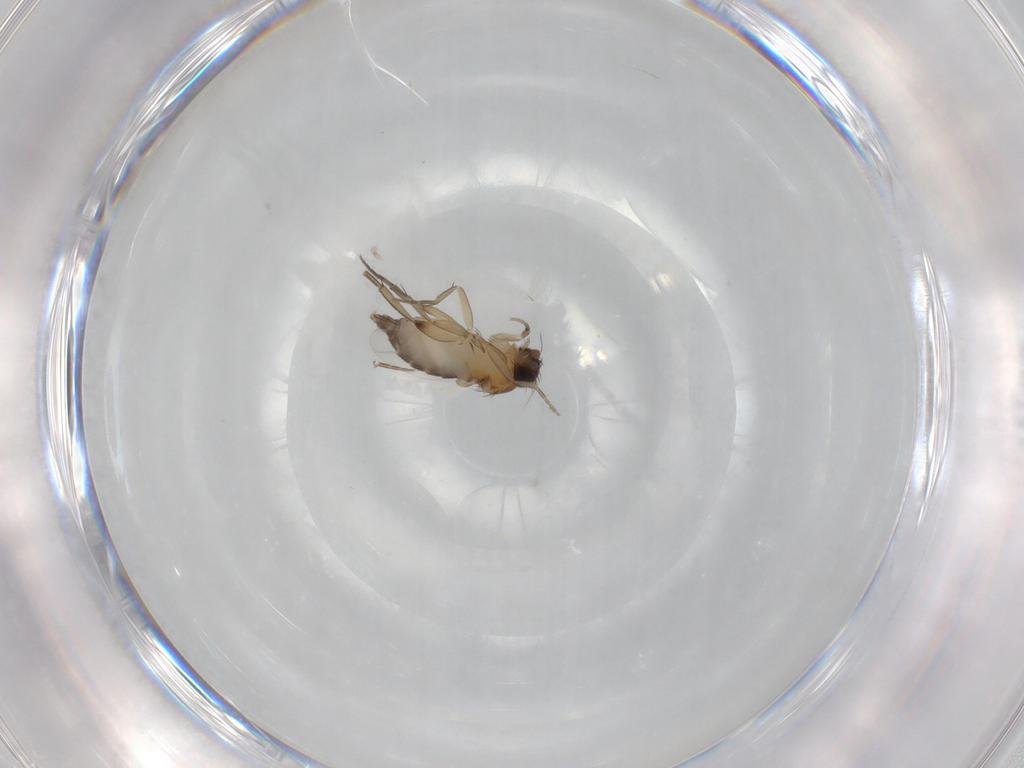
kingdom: Animalia
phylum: Arthropoda
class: Insecta
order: Diptera
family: Phoridae
